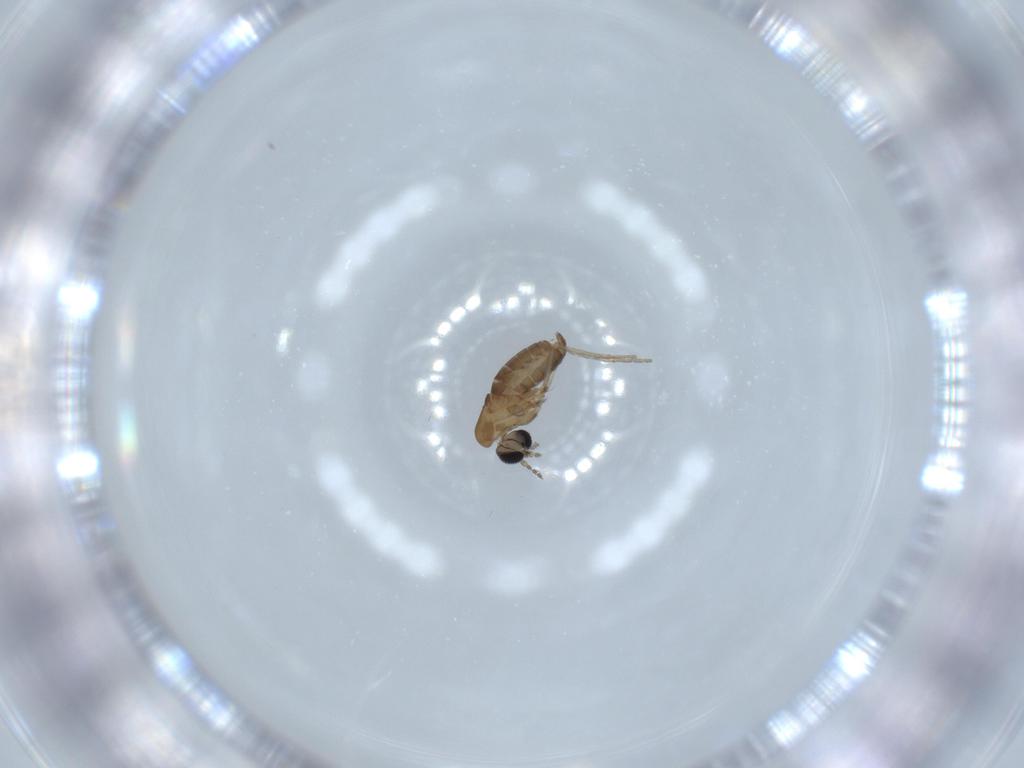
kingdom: Animalia
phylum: Arthropoda
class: Insecta
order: Diptera
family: Psychodidae
